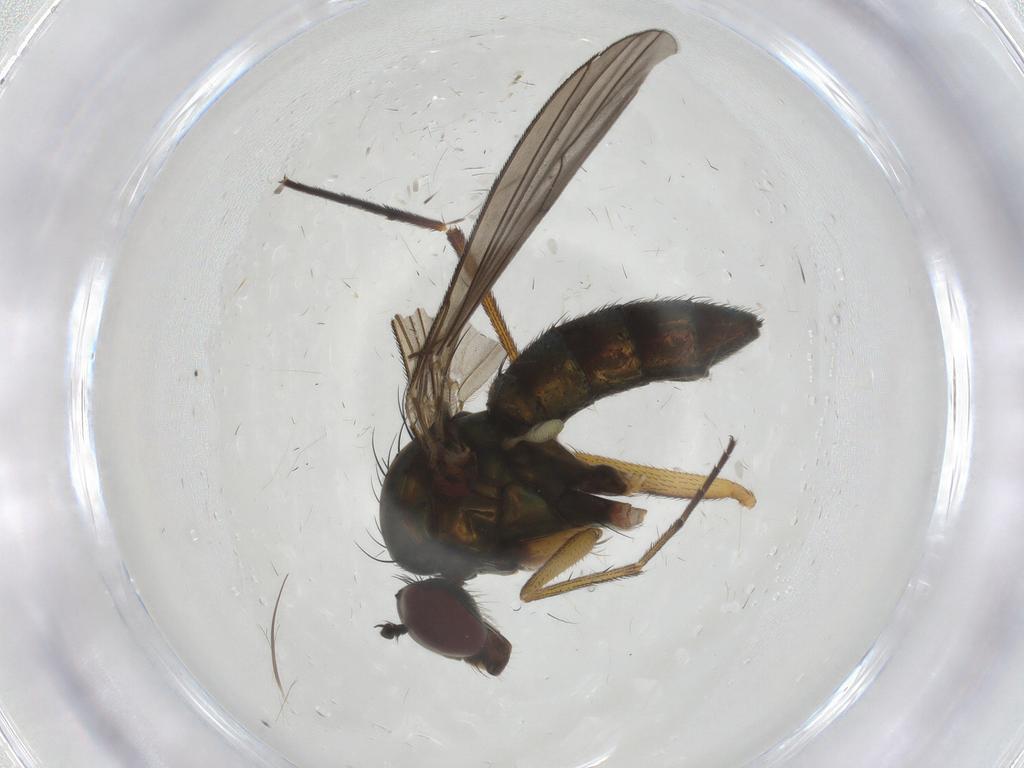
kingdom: Animalia
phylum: Arthropoda
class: Insecta
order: Diptera
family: Dolichopodidae
